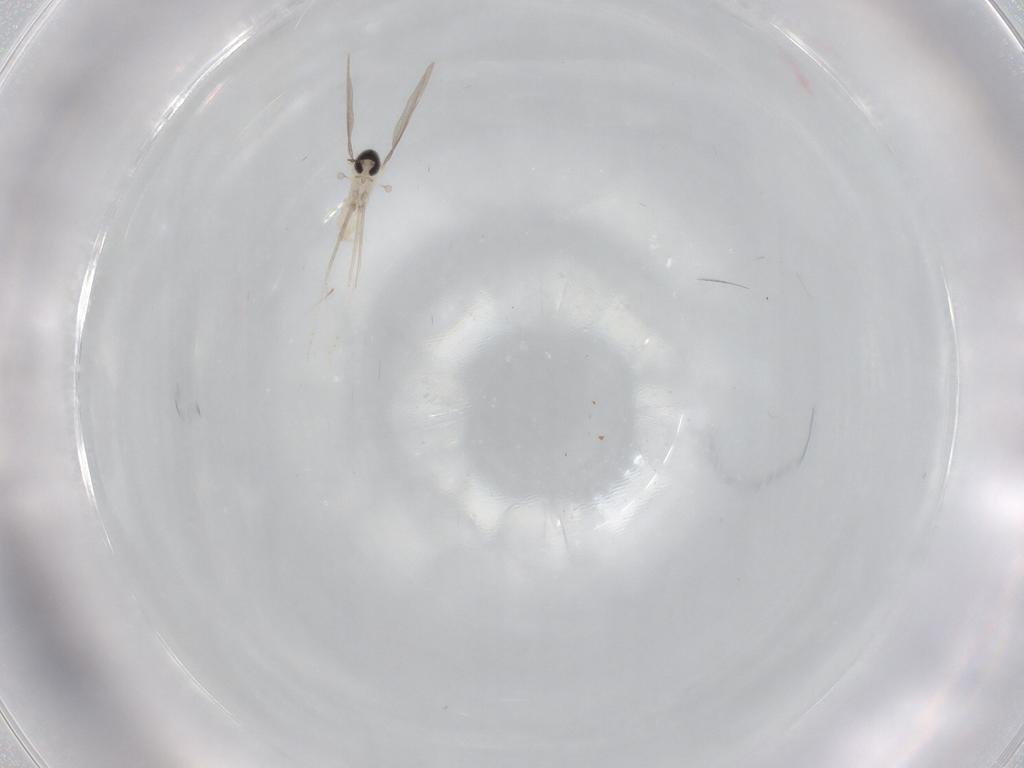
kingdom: Animalia
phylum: Arthropoda
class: Insecta
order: Diptera
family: Cecidomyiidae
